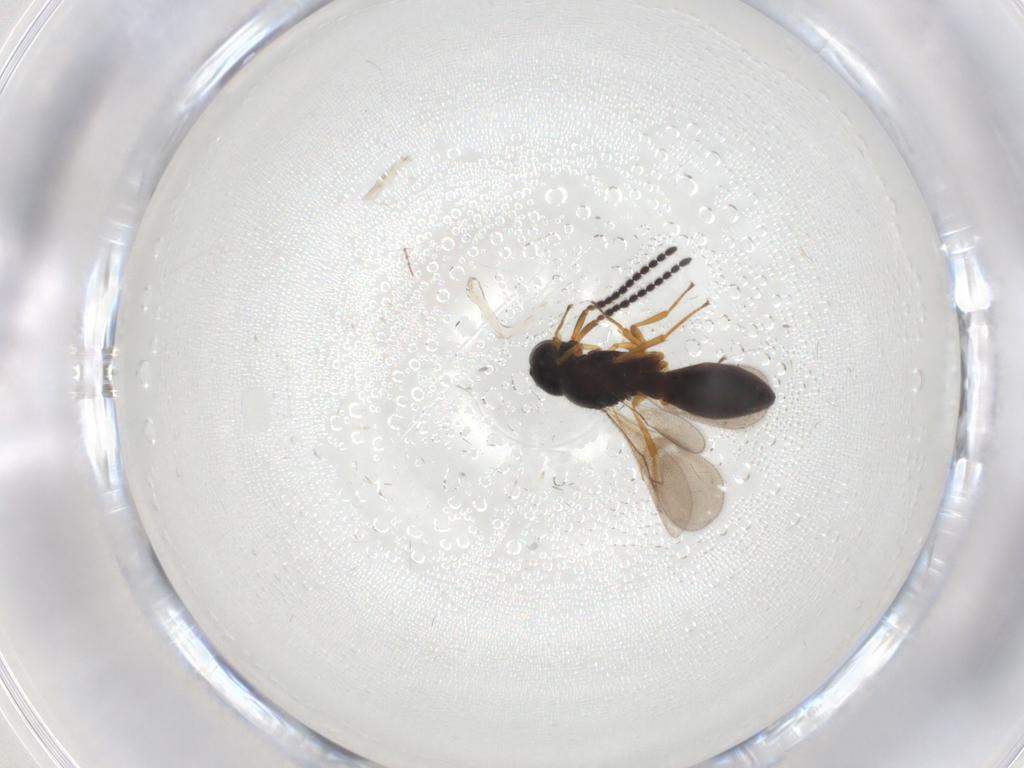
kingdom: Animalia
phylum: Arthropoda
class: Insecta
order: Hymenoptera
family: Scelionidae
